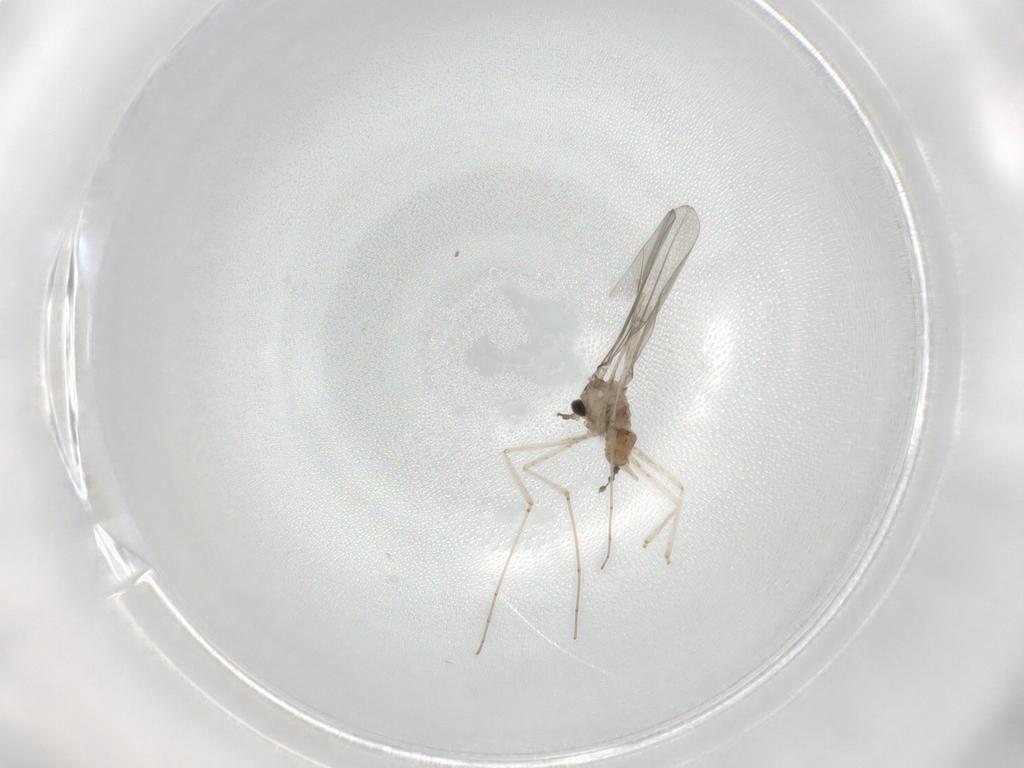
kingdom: Animalia
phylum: Arthropoda
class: Insecta
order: Diptera
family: Cecidomyiidae
